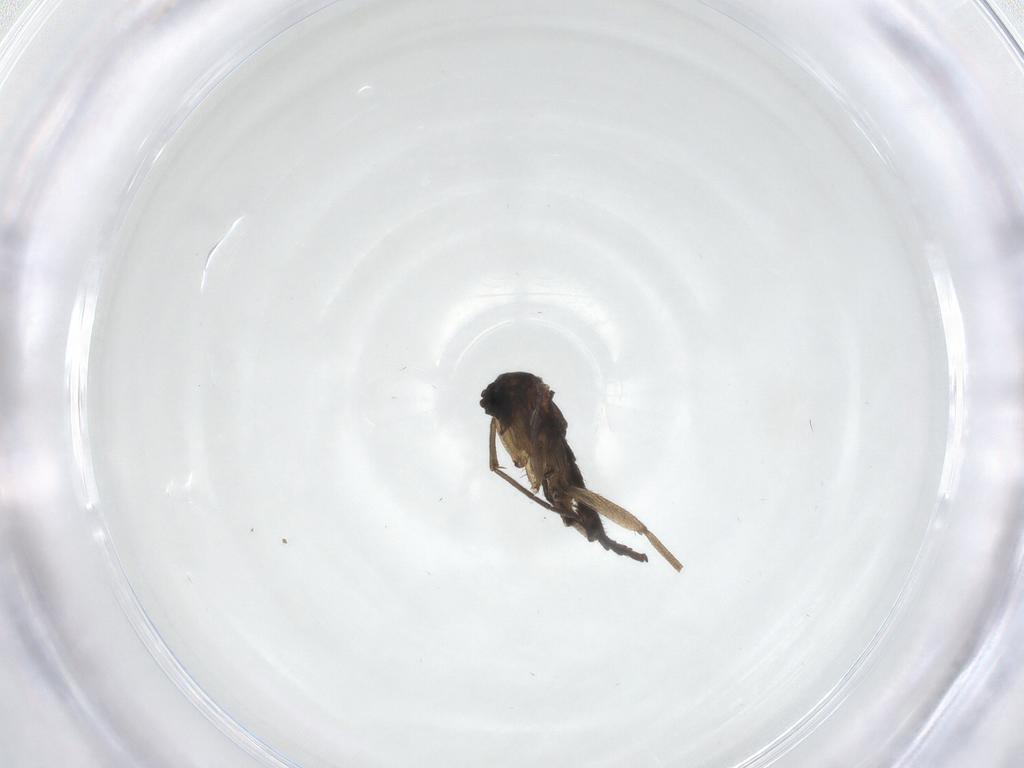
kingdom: Animalia
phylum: Arthropoda
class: Insecta
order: Diptera
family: Sciaridae
